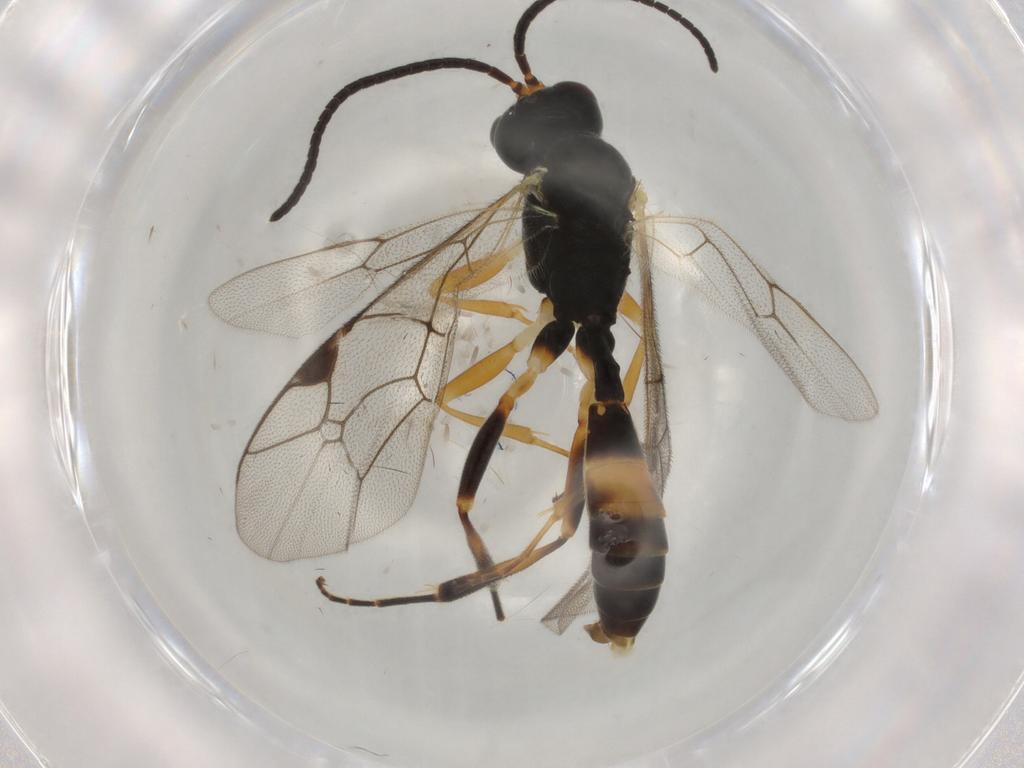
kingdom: Animalia
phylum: Arthropoda
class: Insecta
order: Hymenoptera
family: Ichneumonidae
